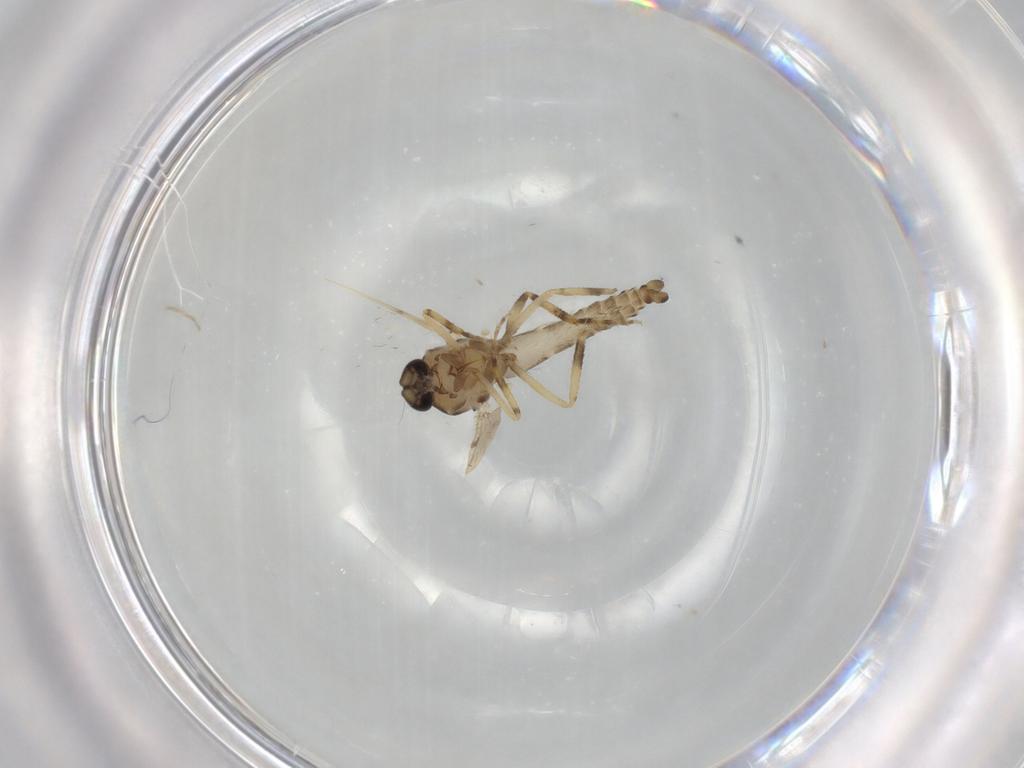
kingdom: Animalia
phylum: Arthropoda
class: Insecta
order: Diptera
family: Ceratopogonidae
